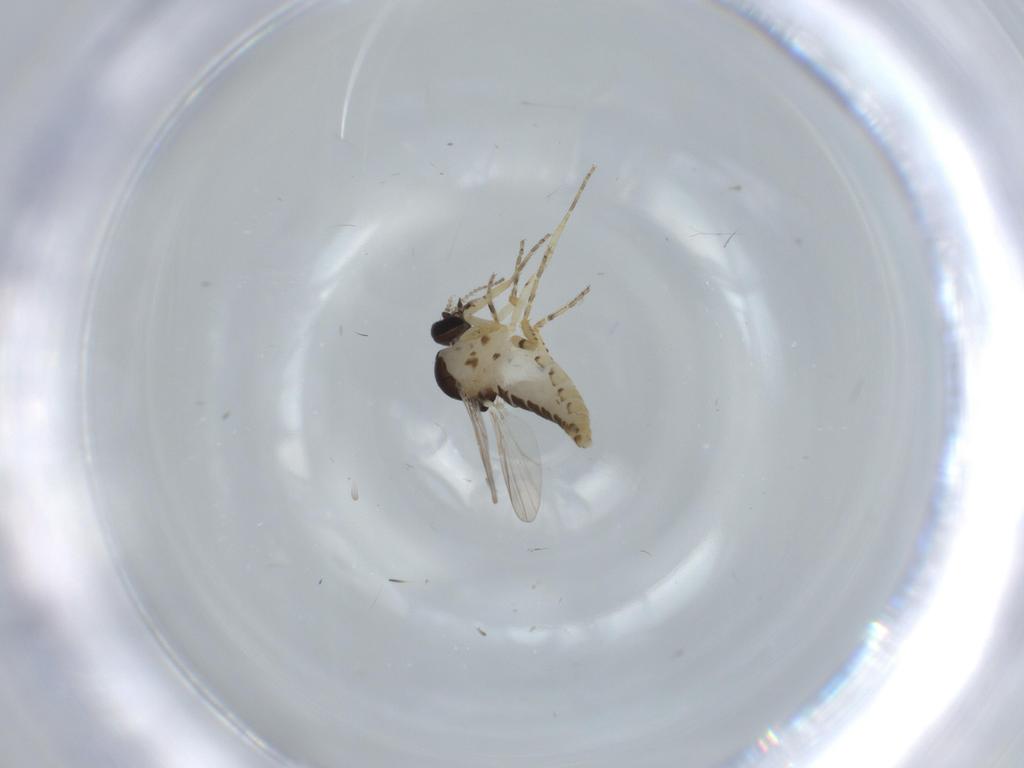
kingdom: Animalia
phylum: Arthropoda
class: Insecta
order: Diptera
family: Ceratopogonidae
